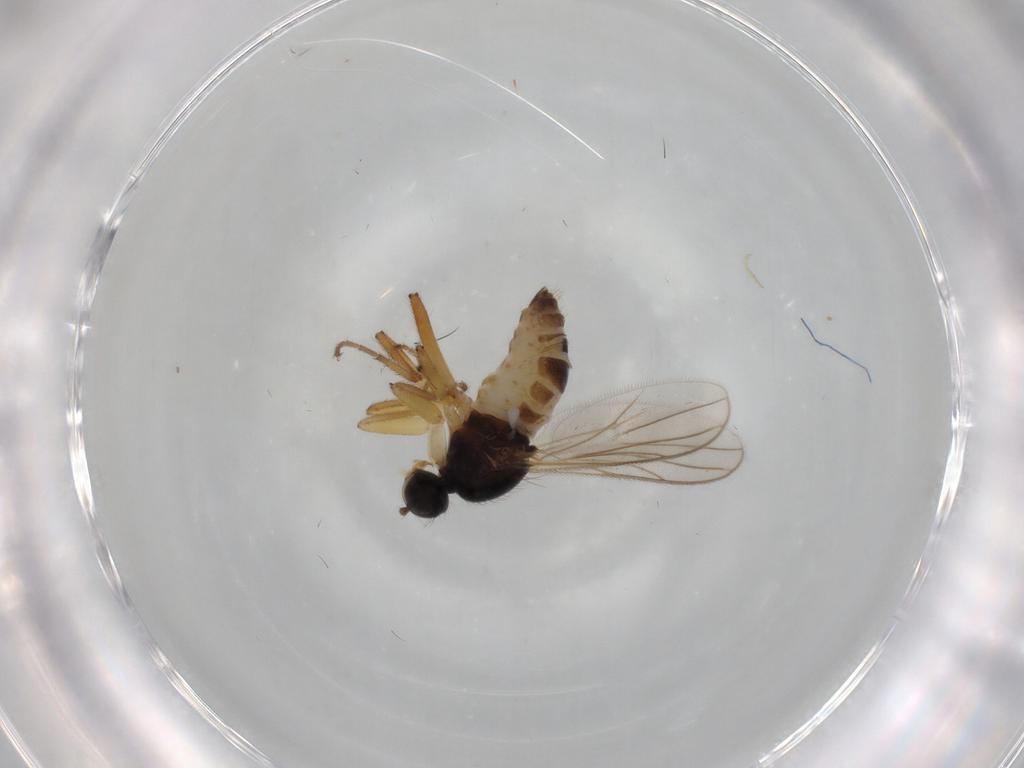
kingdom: Animalia
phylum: Arthropoda
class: Insecta
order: Diptera
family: Hybotidae
